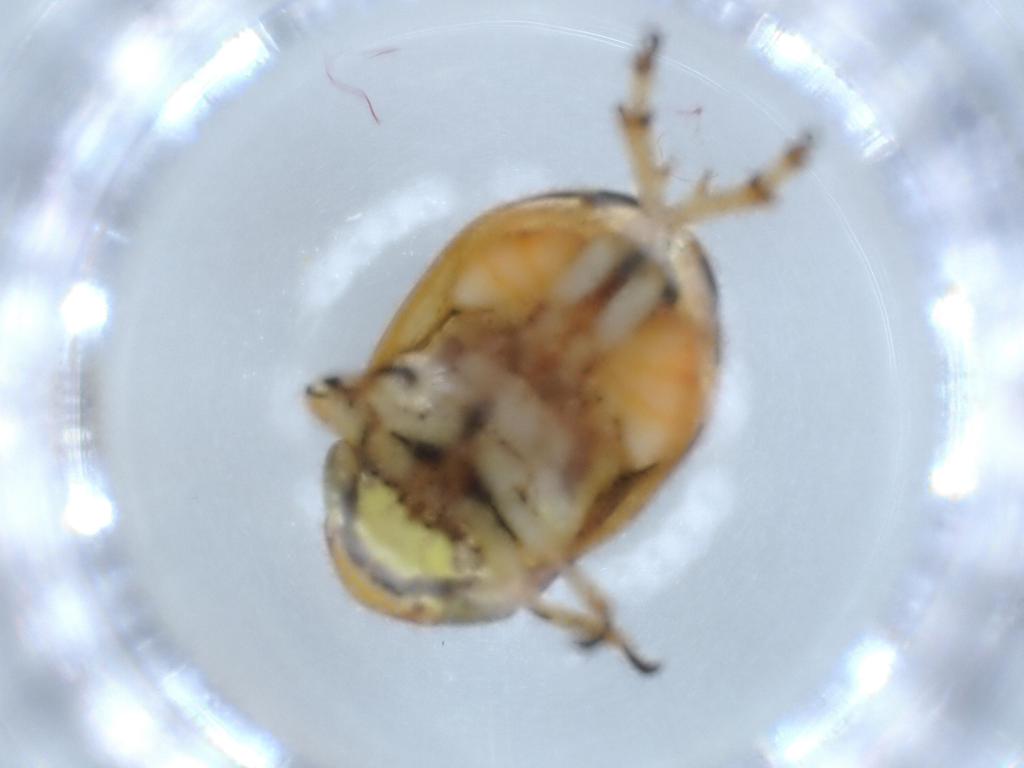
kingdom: Animalia
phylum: Arthropoda
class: Insecta
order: Hemiptera
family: Clastopteridae
